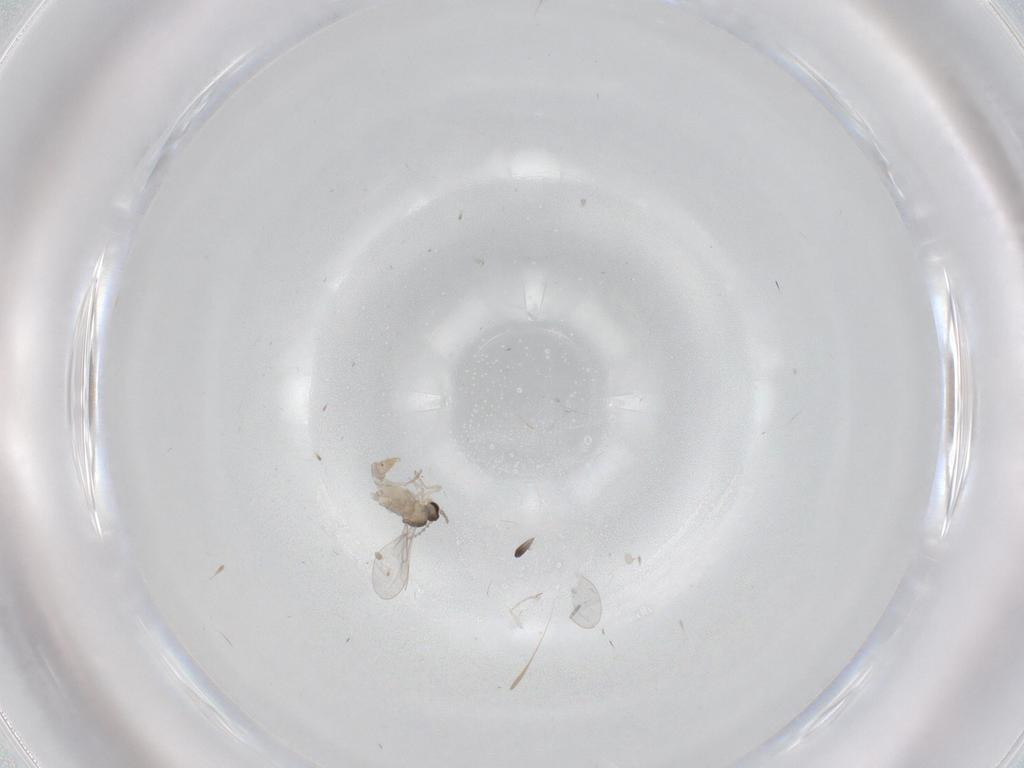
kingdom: Animalia
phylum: Arthropoda
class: Insecta
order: Diptera
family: Cecidomyiidae
